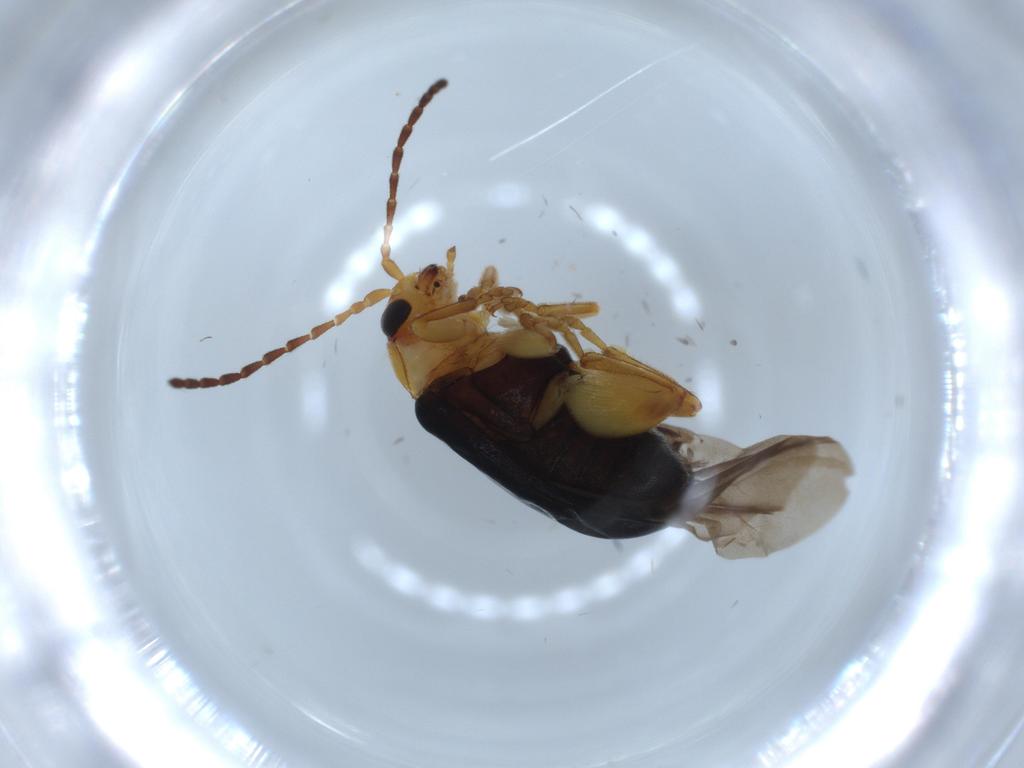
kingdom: Animalia
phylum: Arthropoda
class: Insecta
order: Coleoptera
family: Chrysomelidae
